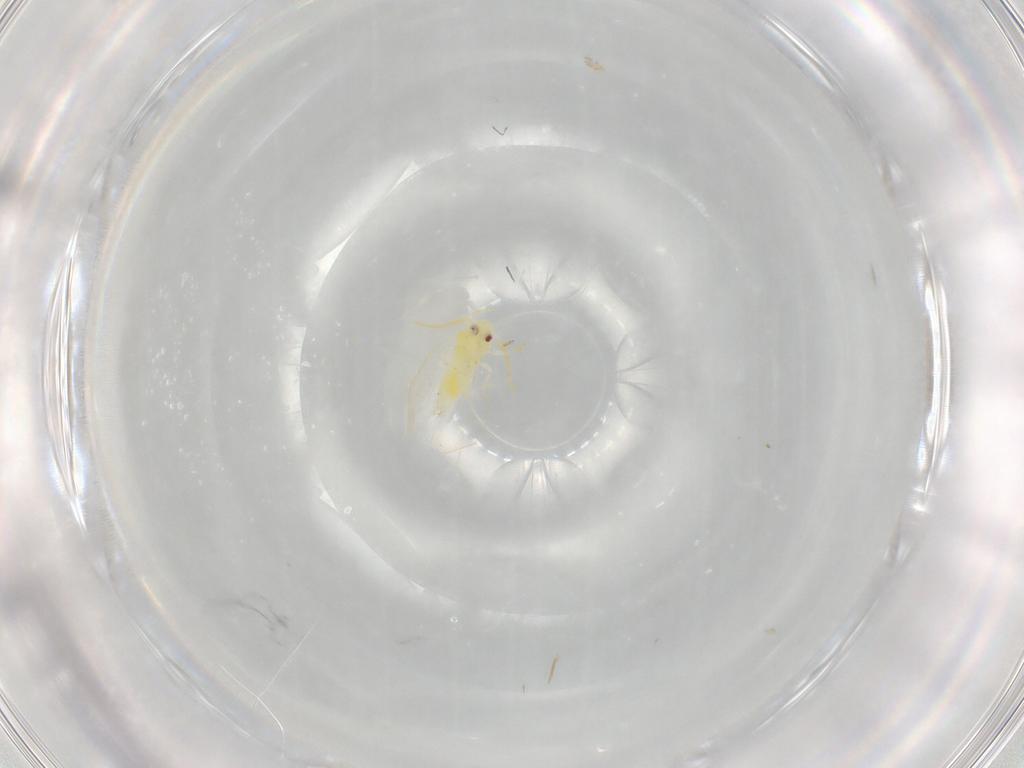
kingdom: Animalia
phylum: Arthropoda
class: Insecta
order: Hemiptera
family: Aleyrodidae
